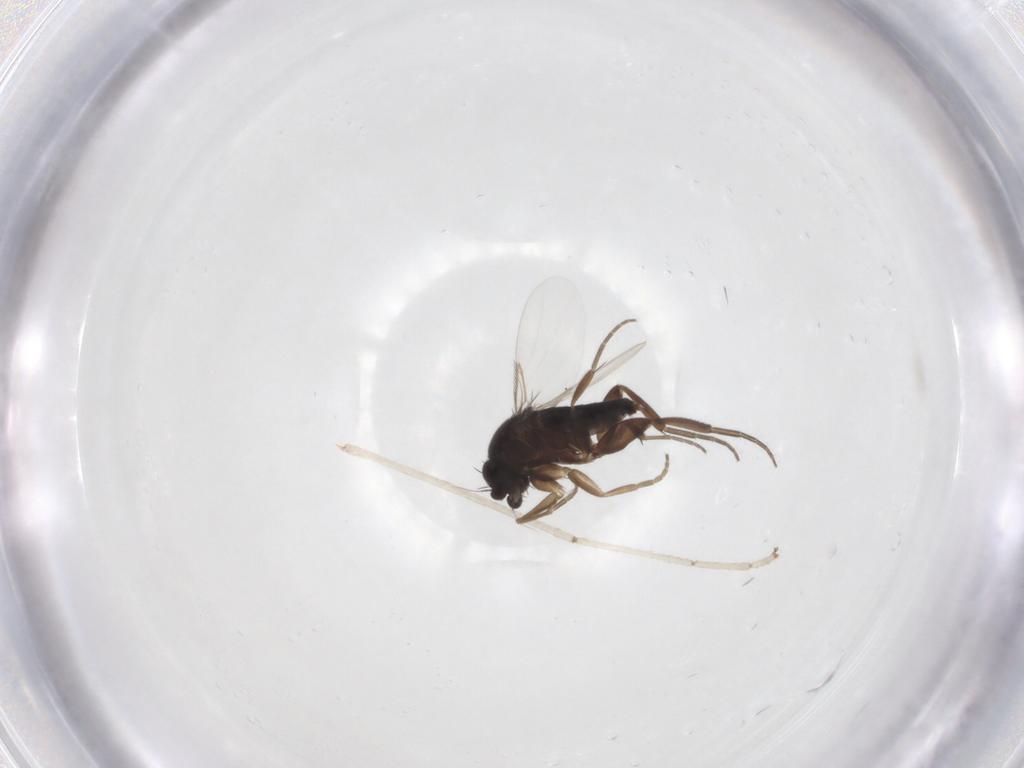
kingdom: Animalia
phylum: Arthropoda
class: Insecta
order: Diptera
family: Cecidomyiidae
